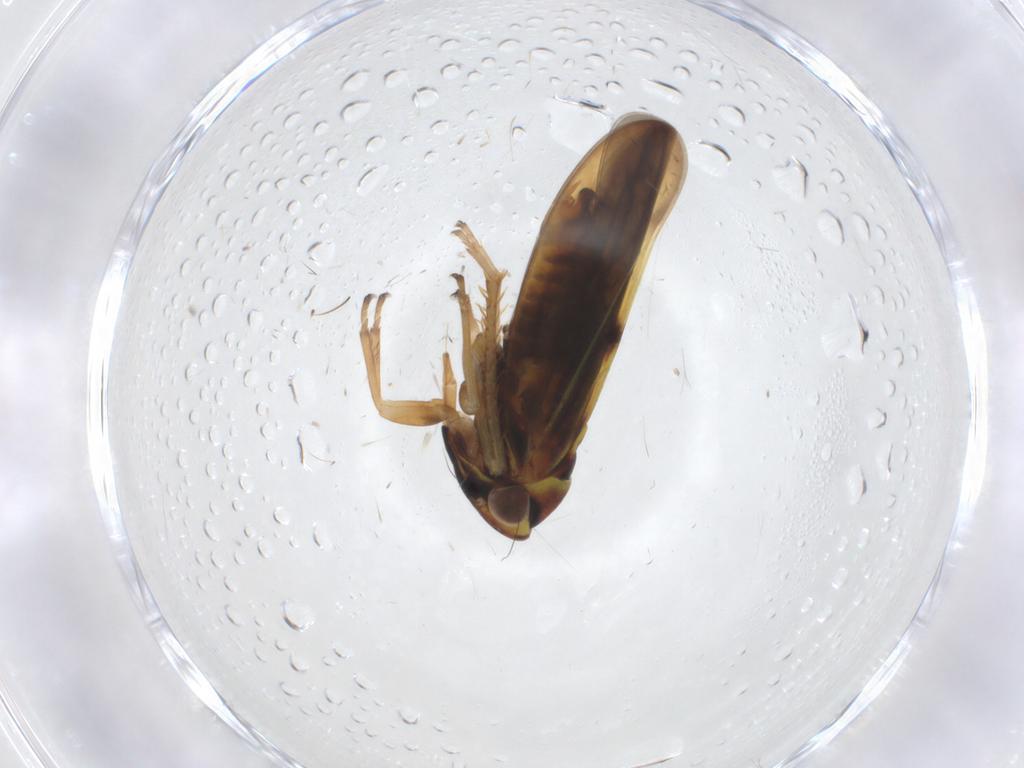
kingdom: Animalia
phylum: Arthropoda
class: Insecta
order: Hemiptera
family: Cicadellidae
